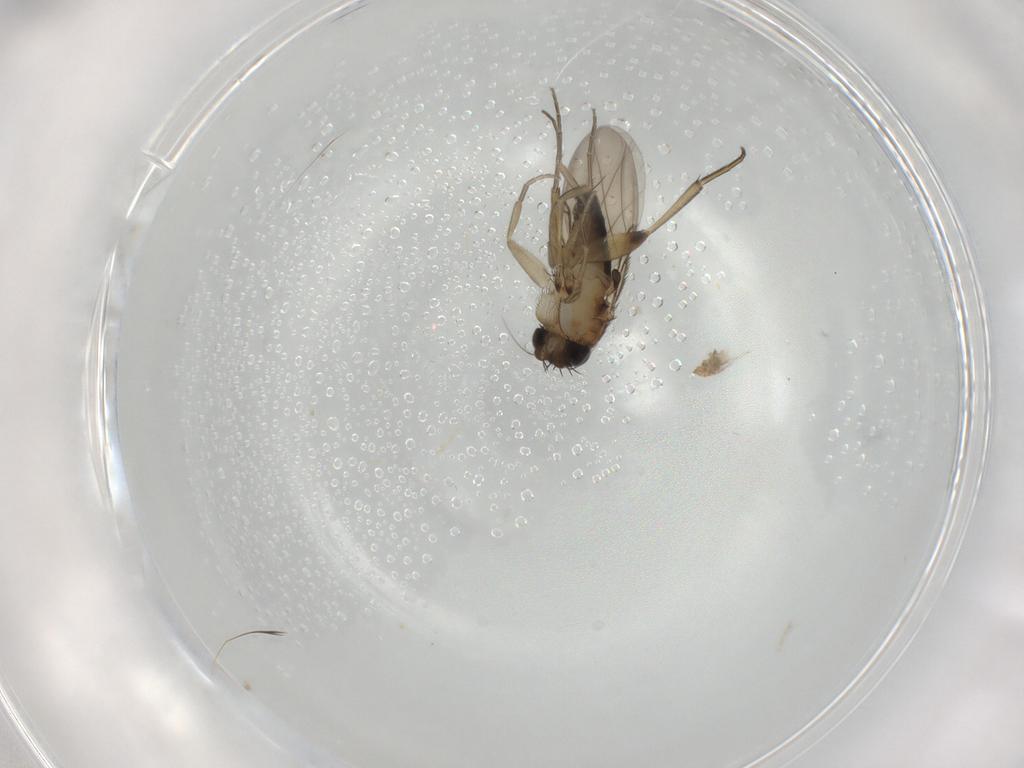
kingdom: Animalia
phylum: Arthropoda
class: Insecta
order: Diptera
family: Phoridae
